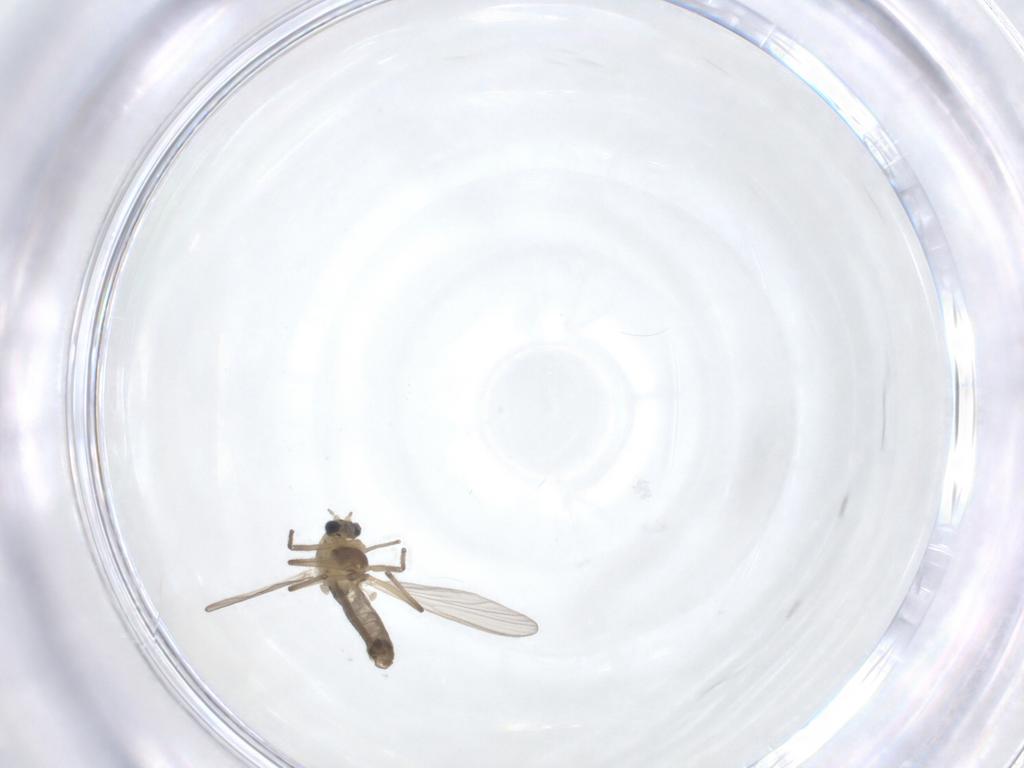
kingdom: Animalia
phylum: Arthropoda
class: Insecta
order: Diptera
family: Chironomidae
